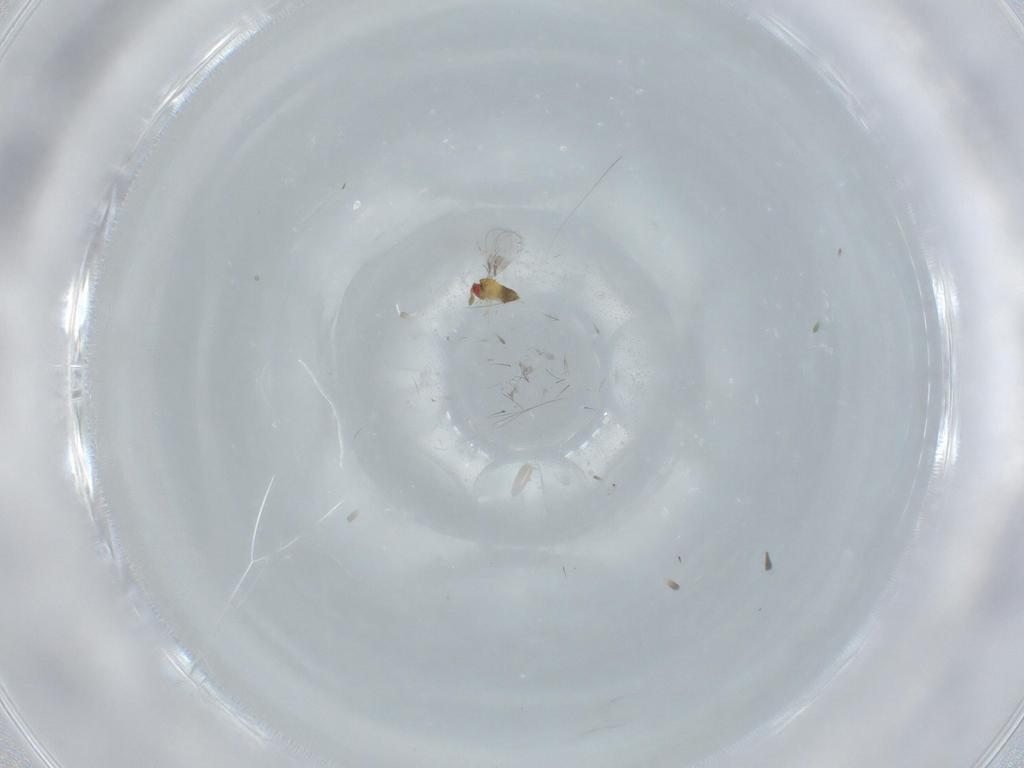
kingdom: Animalia
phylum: Arthropoda
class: Insecta
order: Hymenoptera
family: Trichogrammatidae
